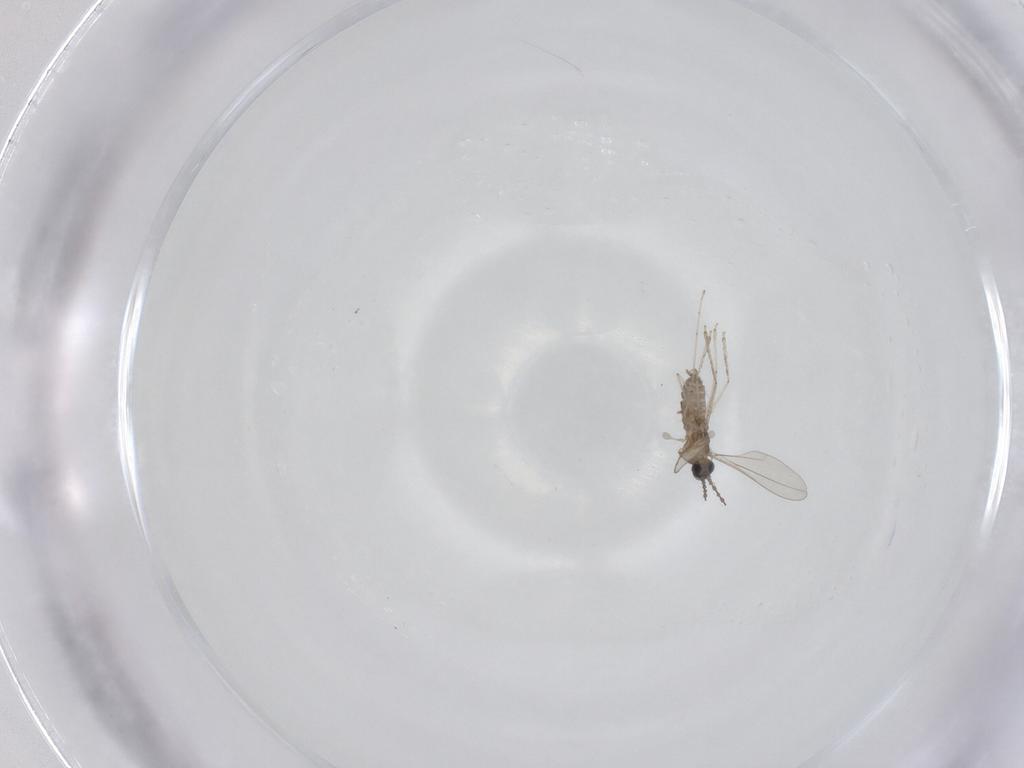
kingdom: Animalia
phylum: Arthropoda
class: Insecta
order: Diptera
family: Cecidomyiidae
